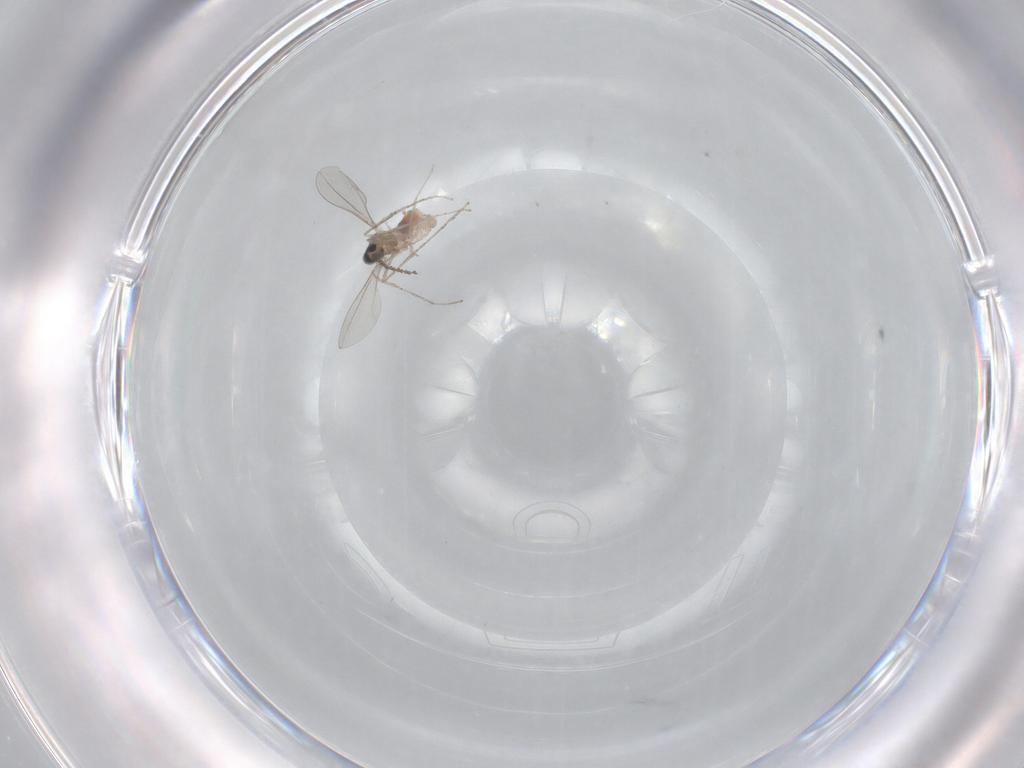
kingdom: Animalia
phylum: Arthropoda
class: Insecta
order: Diptera
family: Cecidomyiidae
